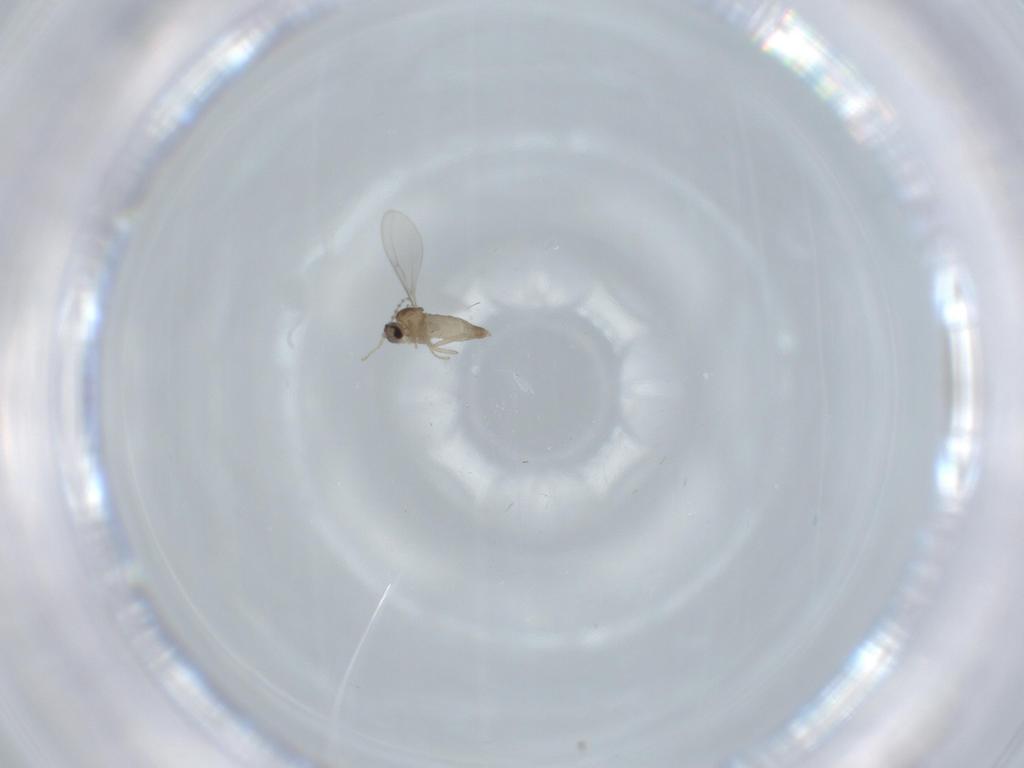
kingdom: Animalia
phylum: Arthropoda
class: Insecta
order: Diptera
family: Cecidomyiidae
